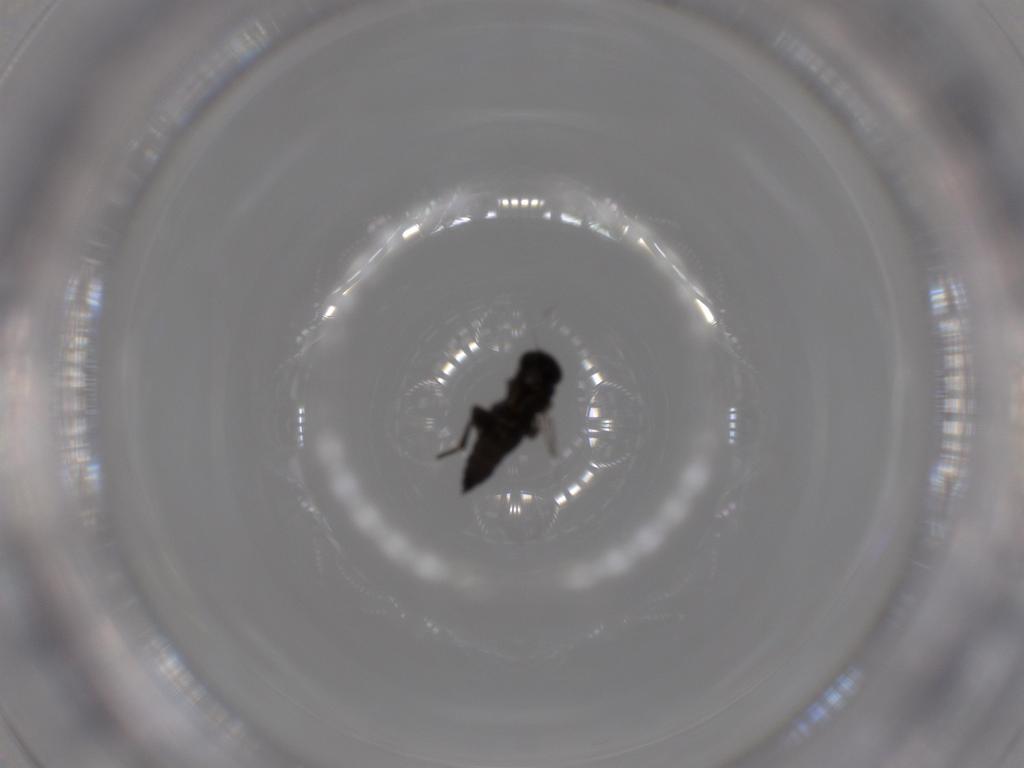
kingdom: Animalia
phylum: Arthropoda
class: Insecta
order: Diptera
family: Phoridae
